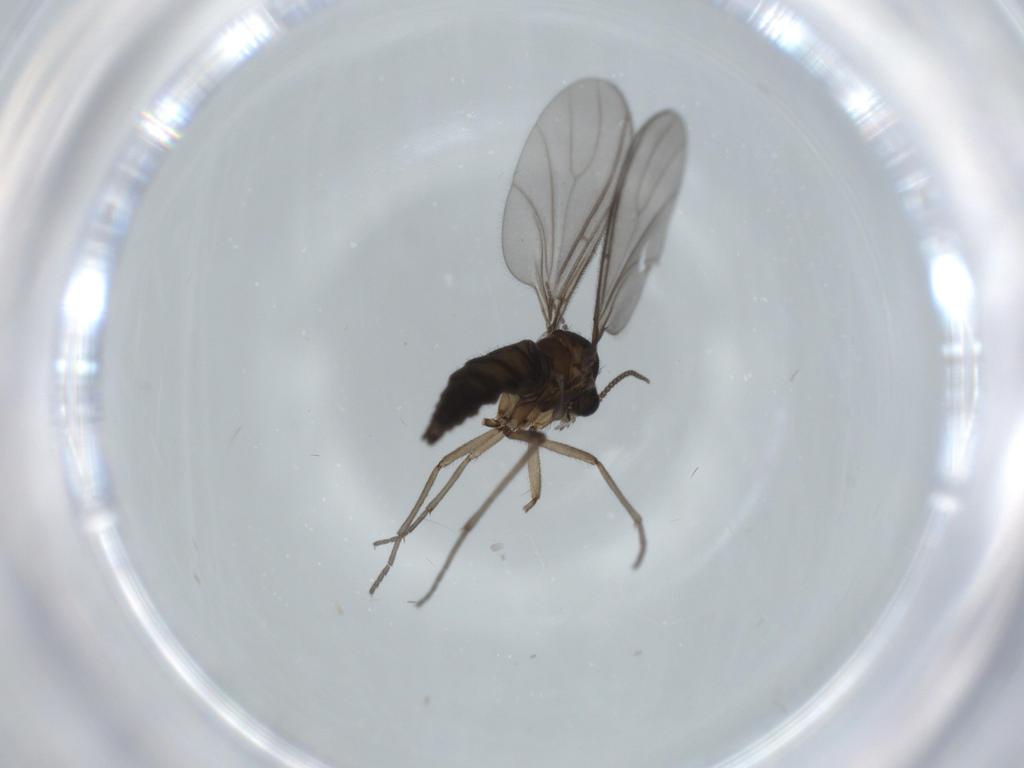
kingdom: Animalia
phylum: Arthropoda
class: Insecta
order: Diptera
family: Sciaridae
